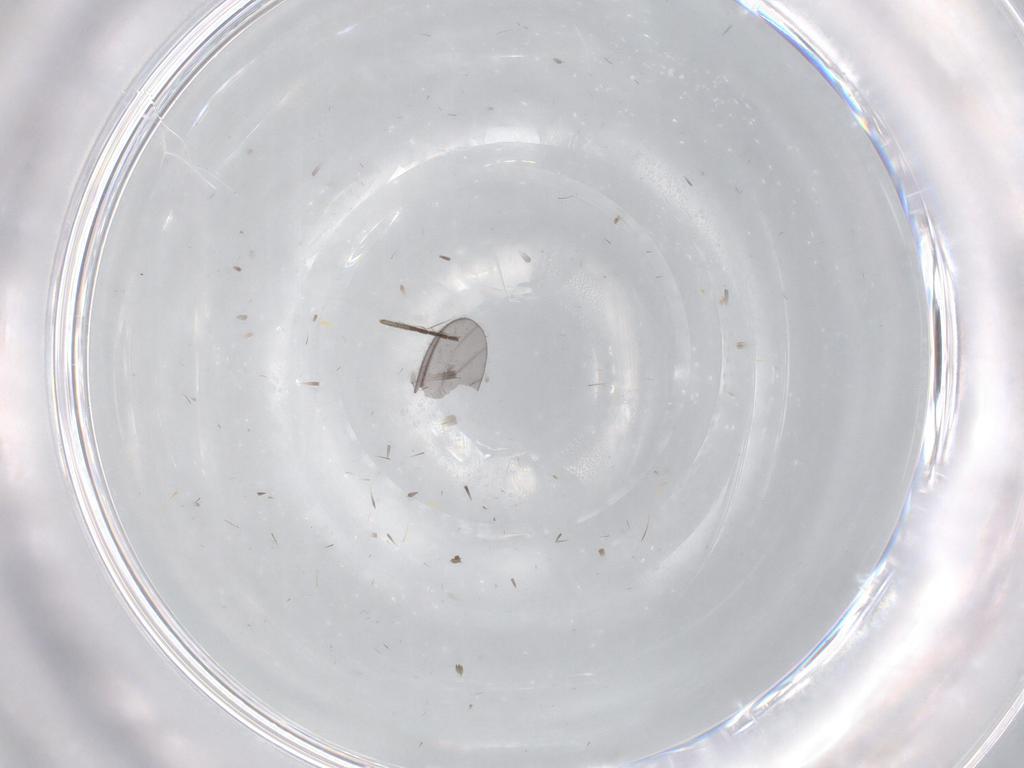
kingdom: Animalia
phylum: Arthropoda
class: Insecta
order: Diptera
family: Sciaridae
